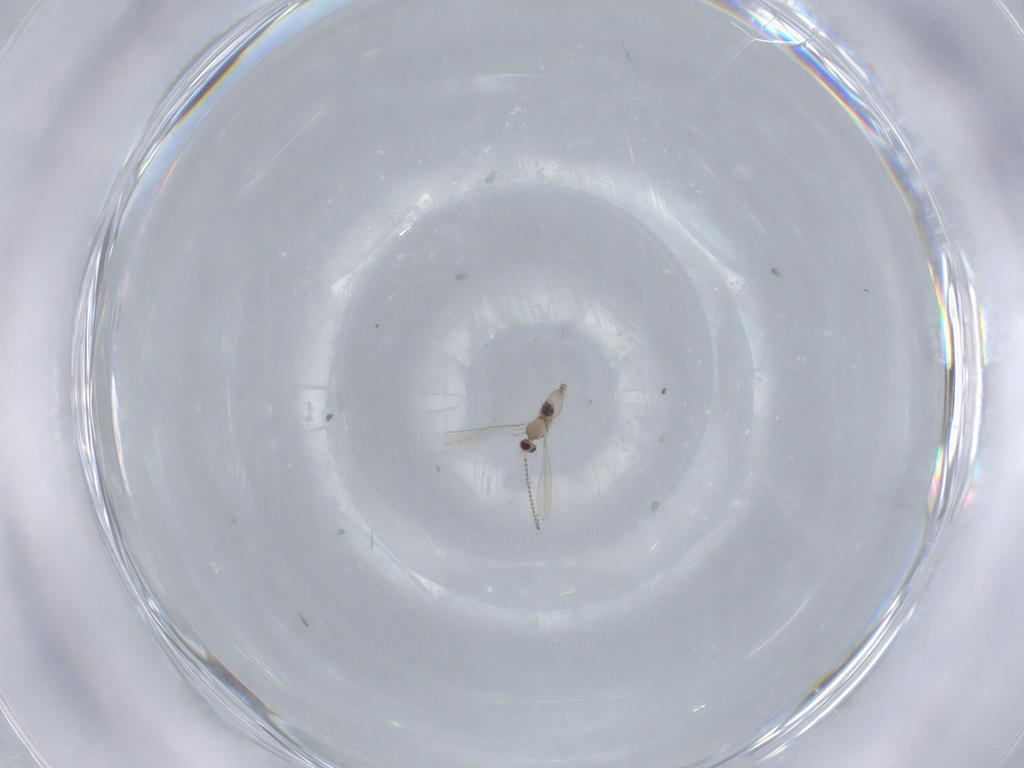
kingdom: Animalia
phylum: Arthropoda
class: Insecta
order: Diptera
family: Cecidomyiidae
